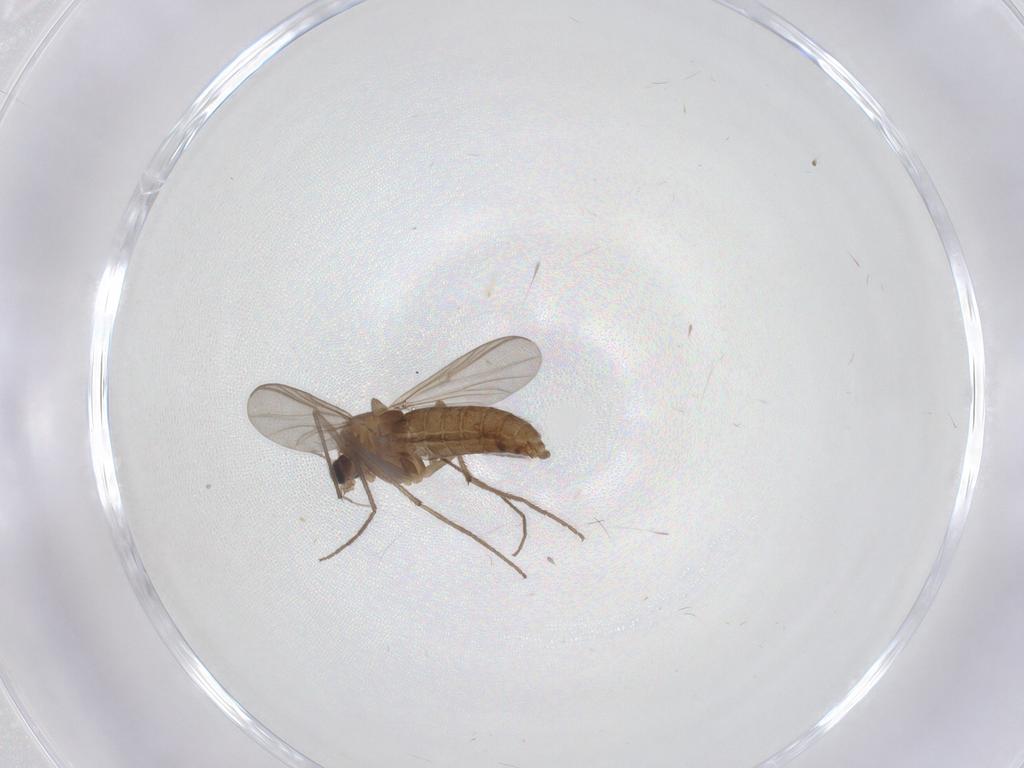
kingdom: Animalia
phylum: Arthropoda
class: Insecta
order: Diptera
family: Chironomidae
